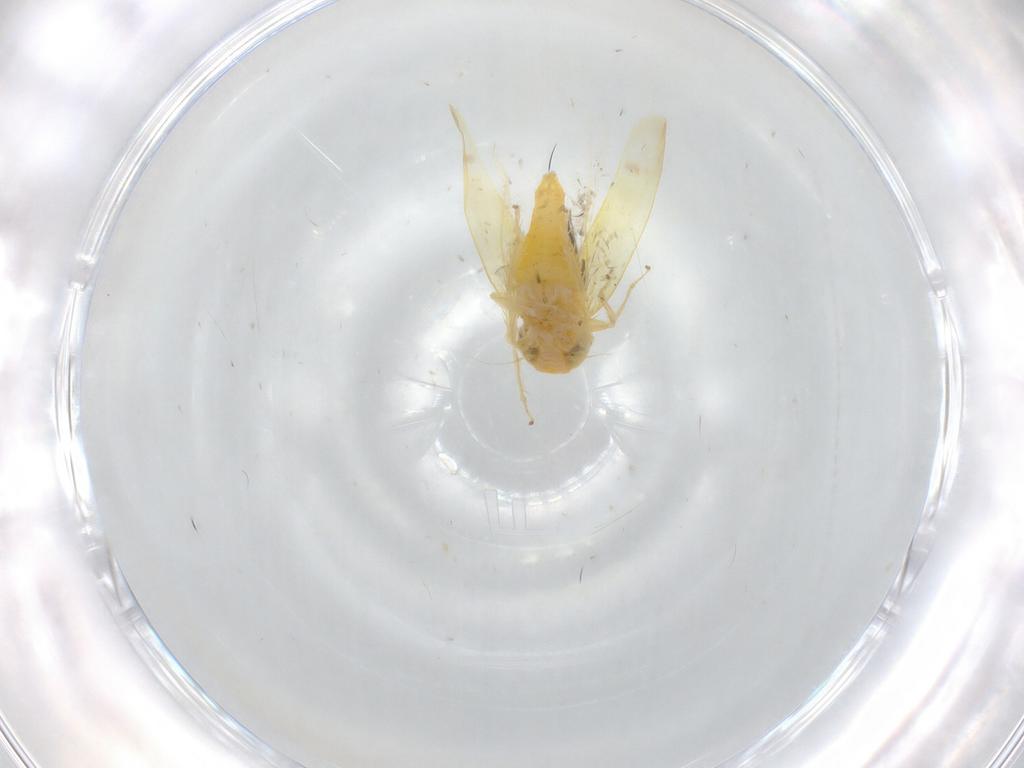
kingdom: Animalia
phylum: Arthropoda
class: Insecta
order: Hemiptera
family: Cicadellidae
